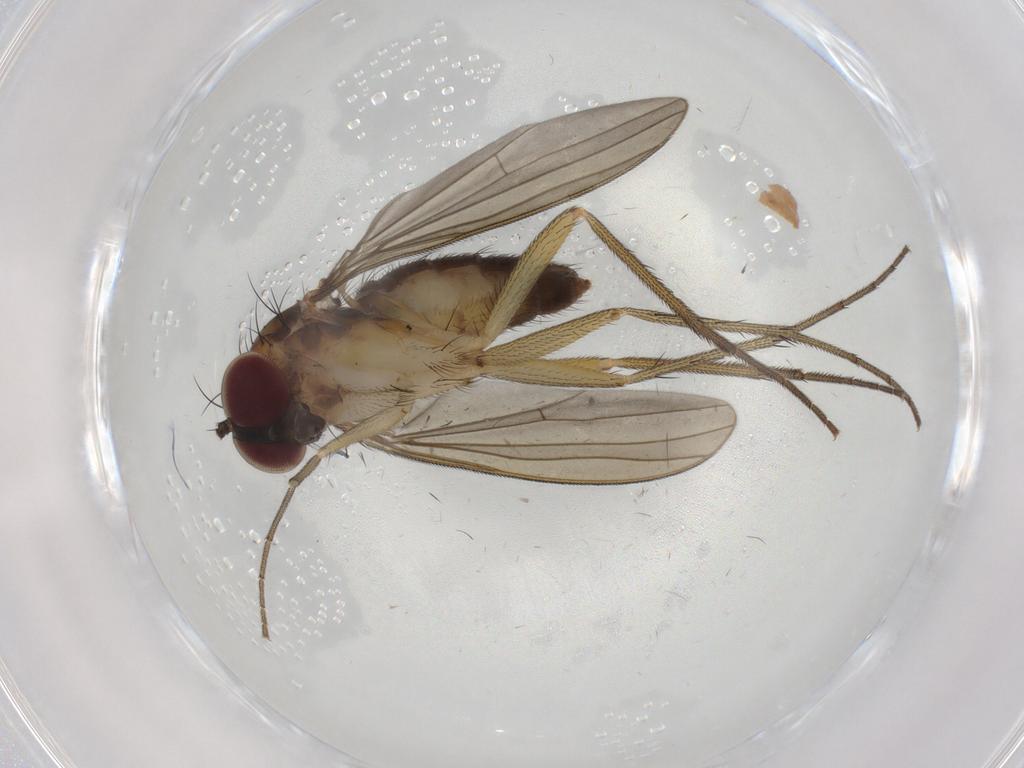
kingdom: Animalia
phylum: Arthropoda
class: Insecta
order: Diptera
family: Dolichopodidae
